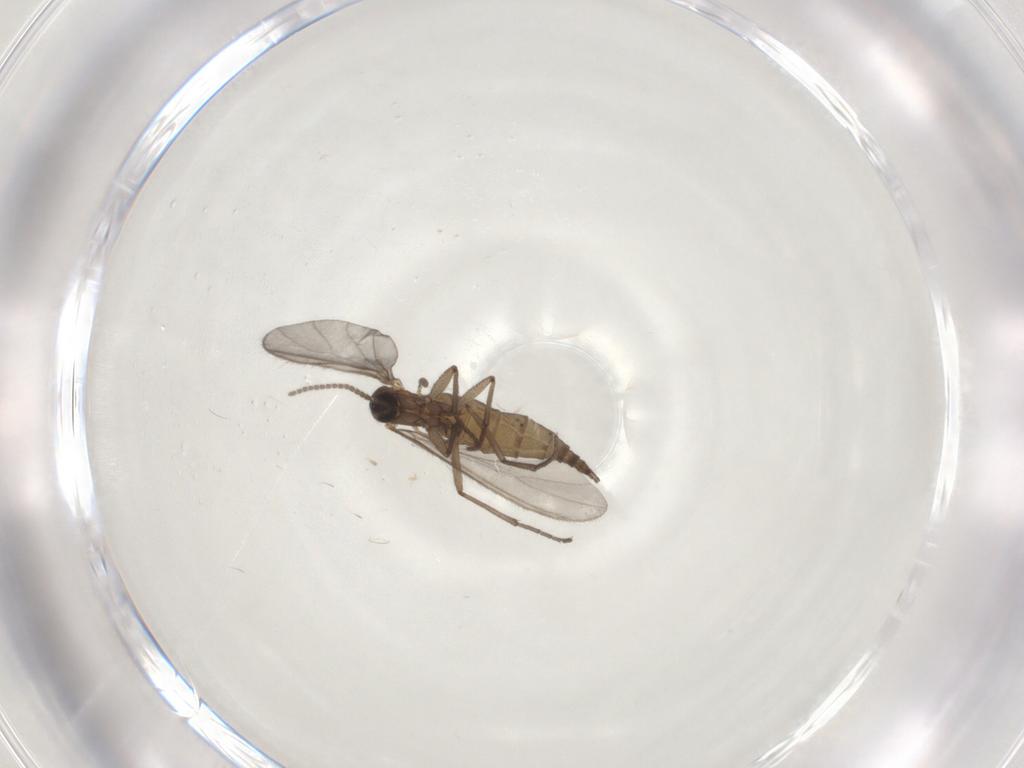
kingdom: Animalia
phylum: Arthropoda
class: Insecta
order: Diptera
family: Sciaridae
